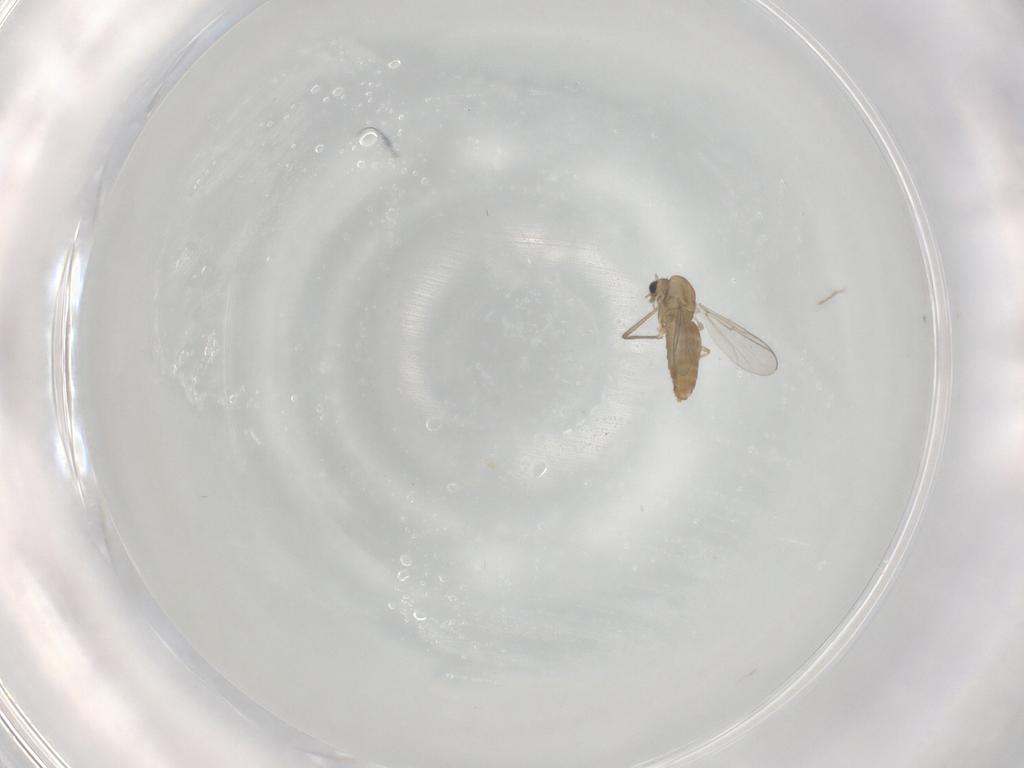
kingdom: Animalia
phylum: Arthropoda
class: Insecta
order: Diptera
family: Chironomidae
